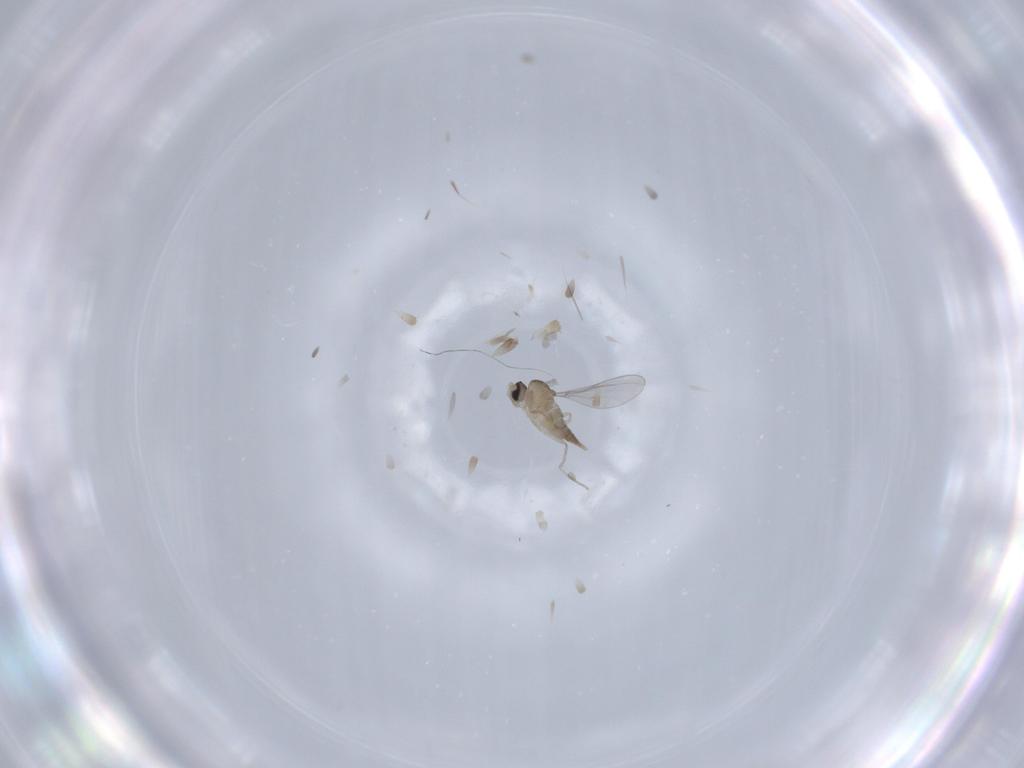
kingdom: Animalia
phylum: Arthropoda
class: Insecta
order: Diptera
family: Cecidomyiidae
